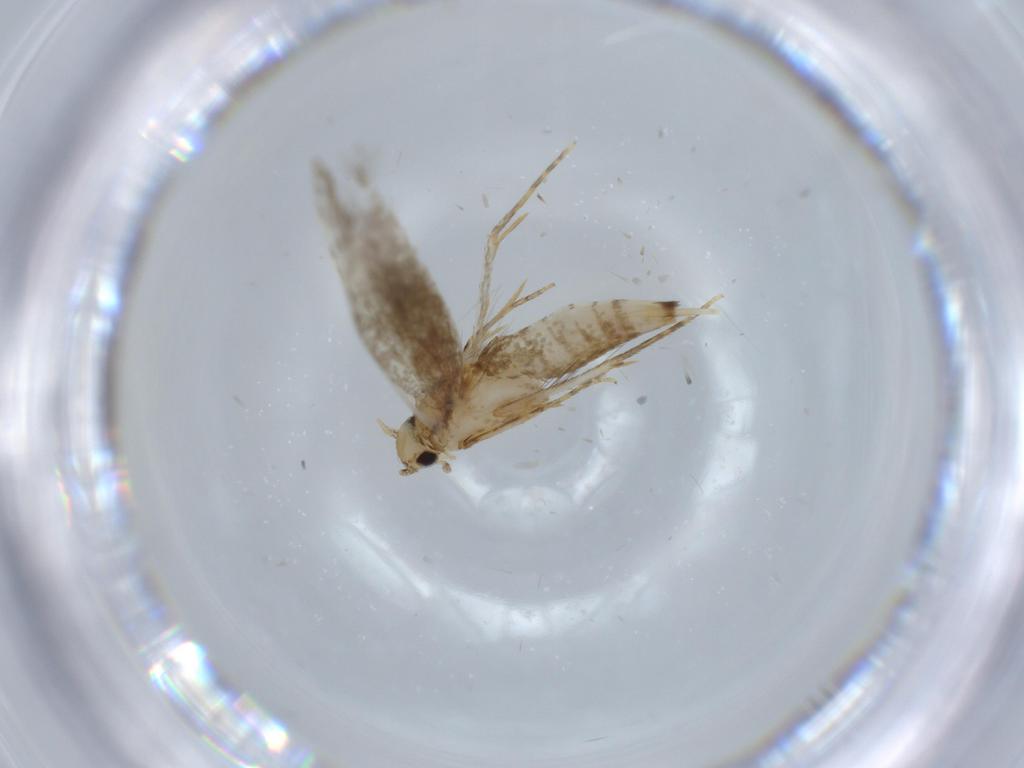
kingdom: Animalia
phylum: Arthropoda
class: Insecta
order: Lepidoptera
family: Tineidae
